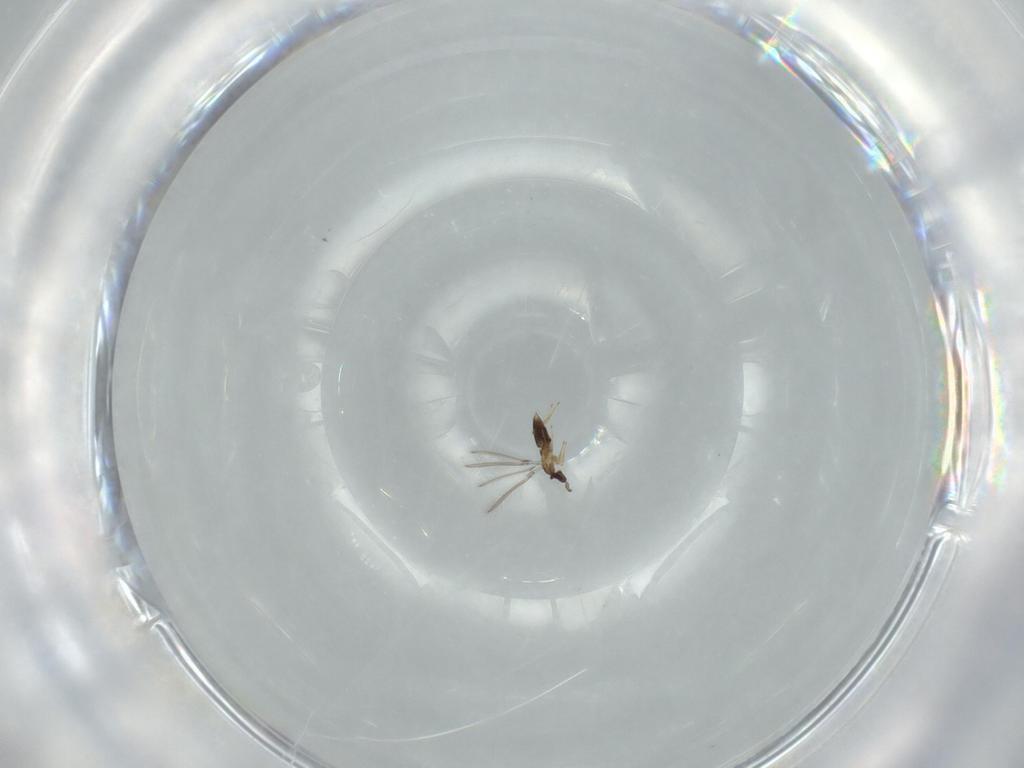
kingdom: Animalia
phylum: Arthropoda
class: Insecta
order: Hymenoptera
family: Mymaridae
